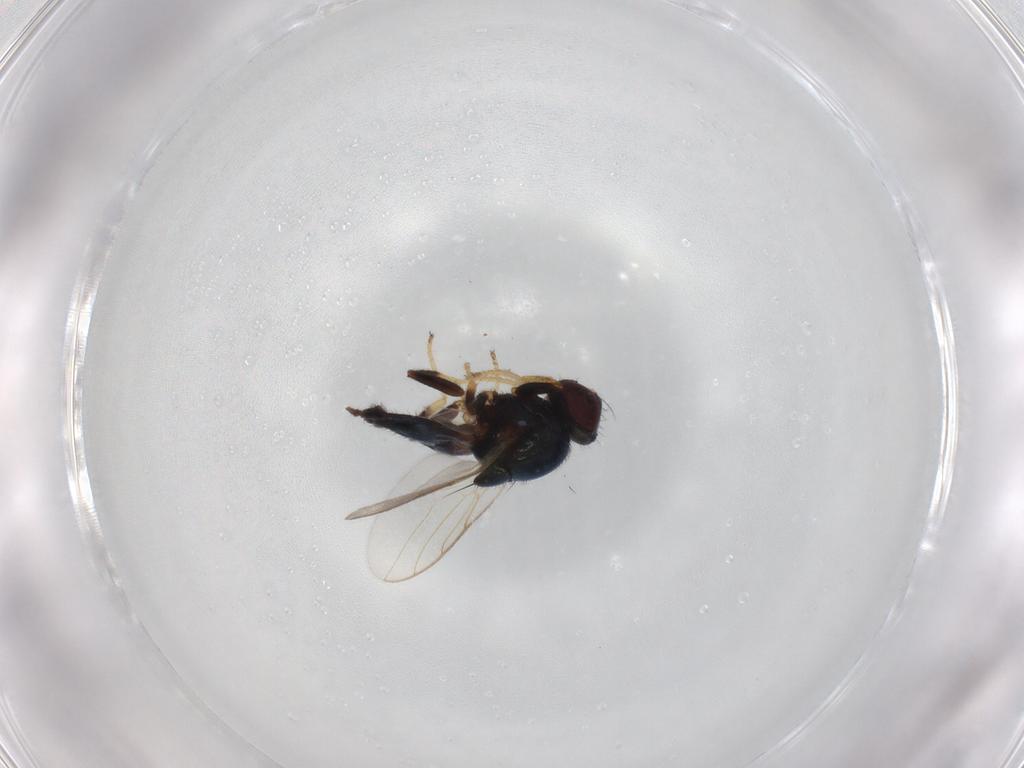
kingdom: Animalia
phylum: Arthropoda
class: Insecta
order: Diptera
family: Chloropidae
